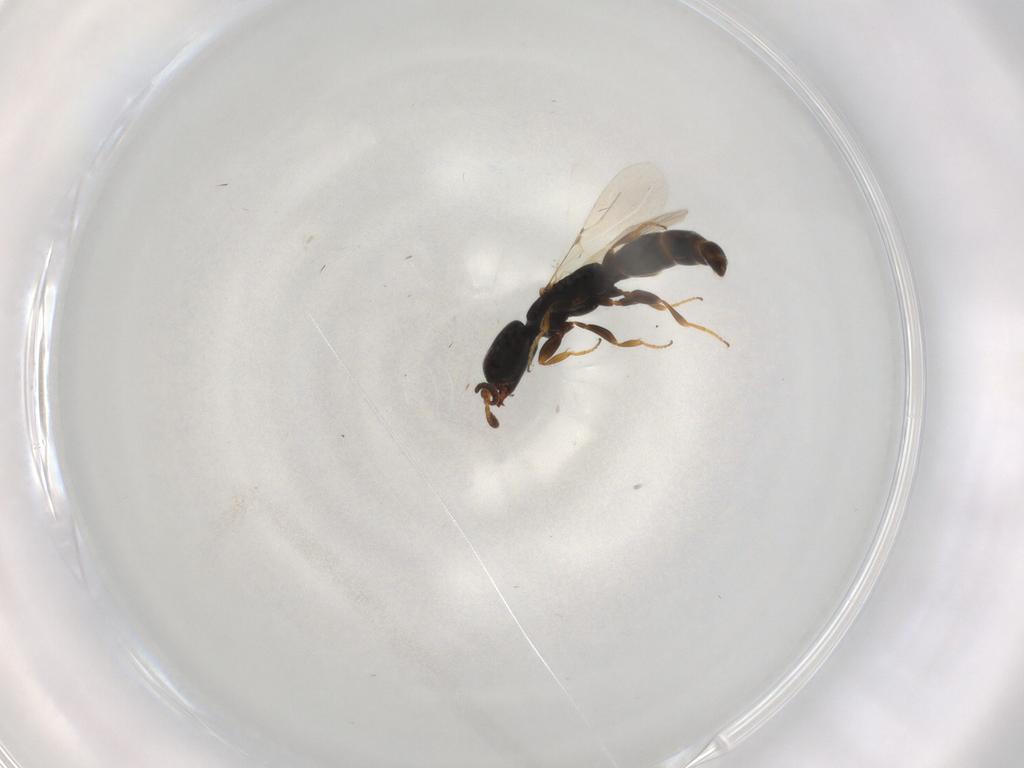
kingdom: Animalia
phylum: Arthropoda
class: Insecta
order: Hymenoptera
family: Bethylidae
